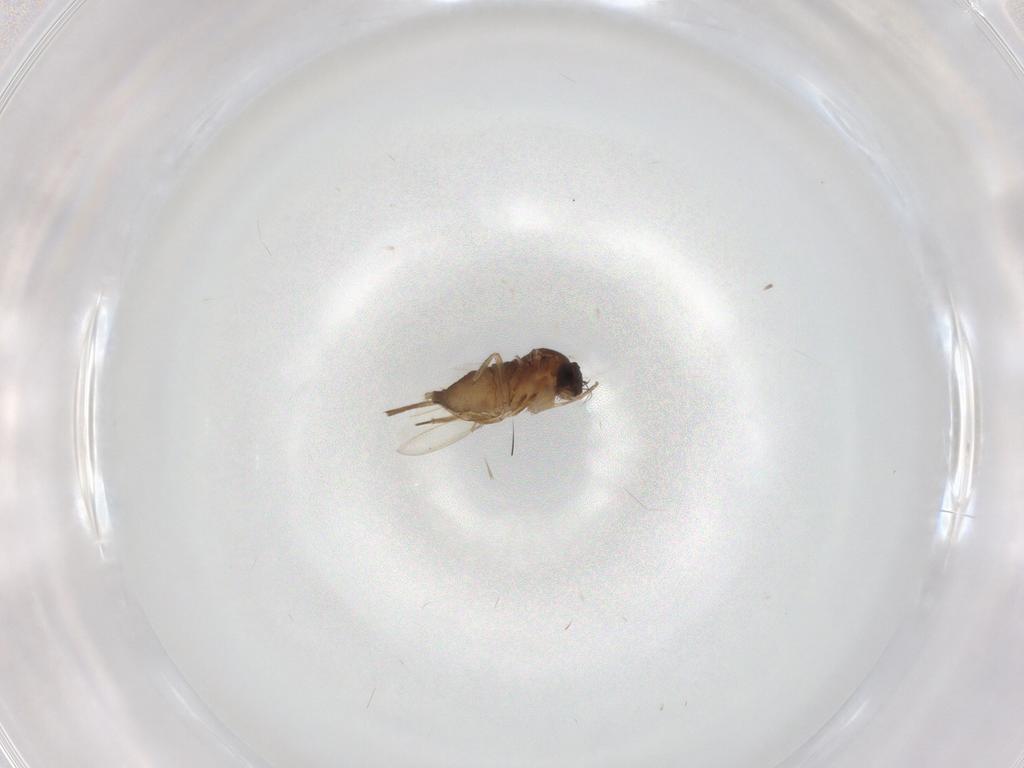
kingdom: Animalia
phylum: Arthropoda
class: Insecta
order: Diptera
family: Phoridae
